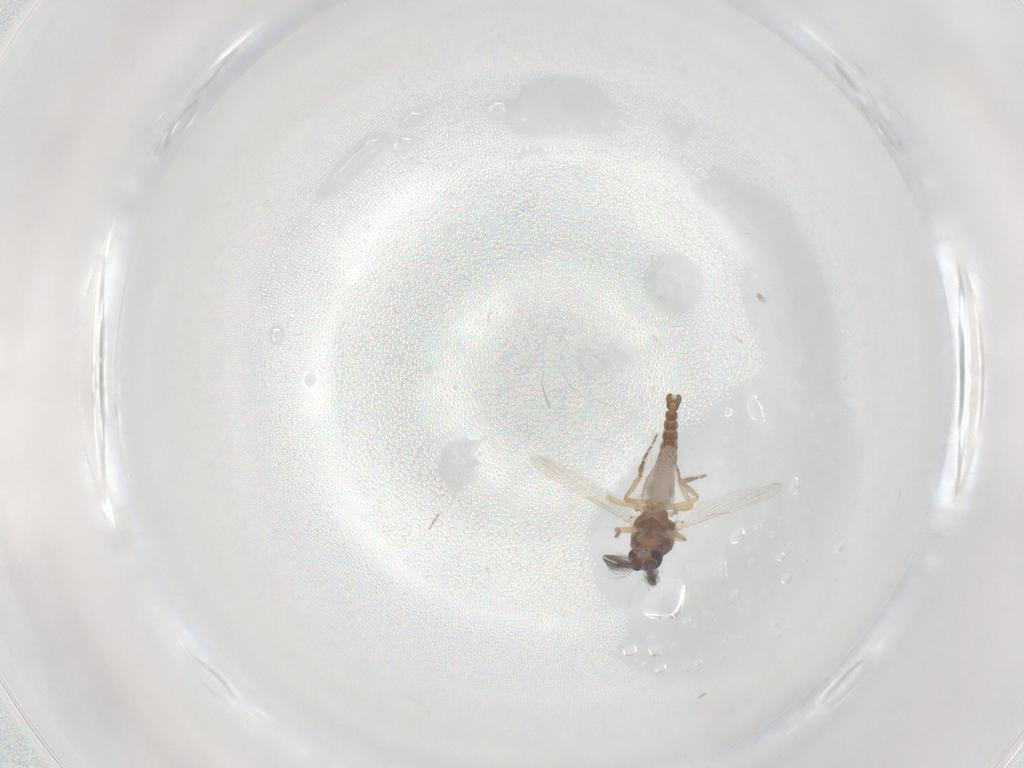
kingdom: Animalia
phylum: Arthropoda
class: Insecta
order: Diptera
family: Ceratopogonidae
